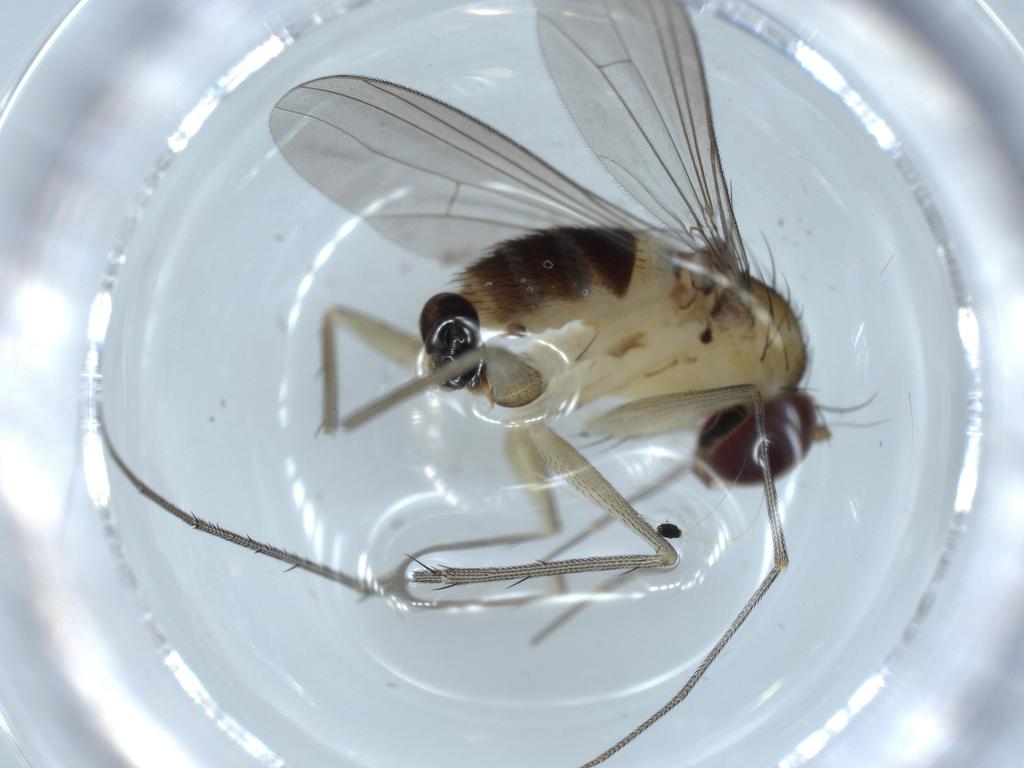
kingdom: Animalia
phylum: Arthropoda
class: Insecta
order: Diptera
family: Dolichopodidae
